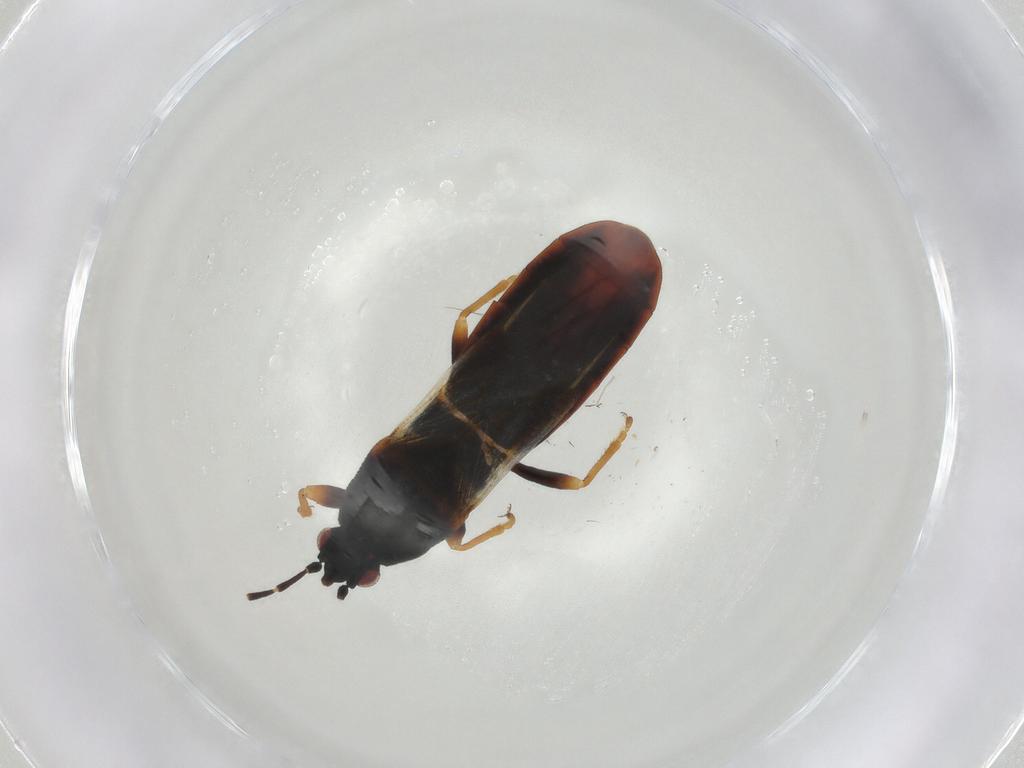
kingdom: Animalia
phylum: Arthropoda
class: Insecta
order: Hemiptera
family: Blissidae
